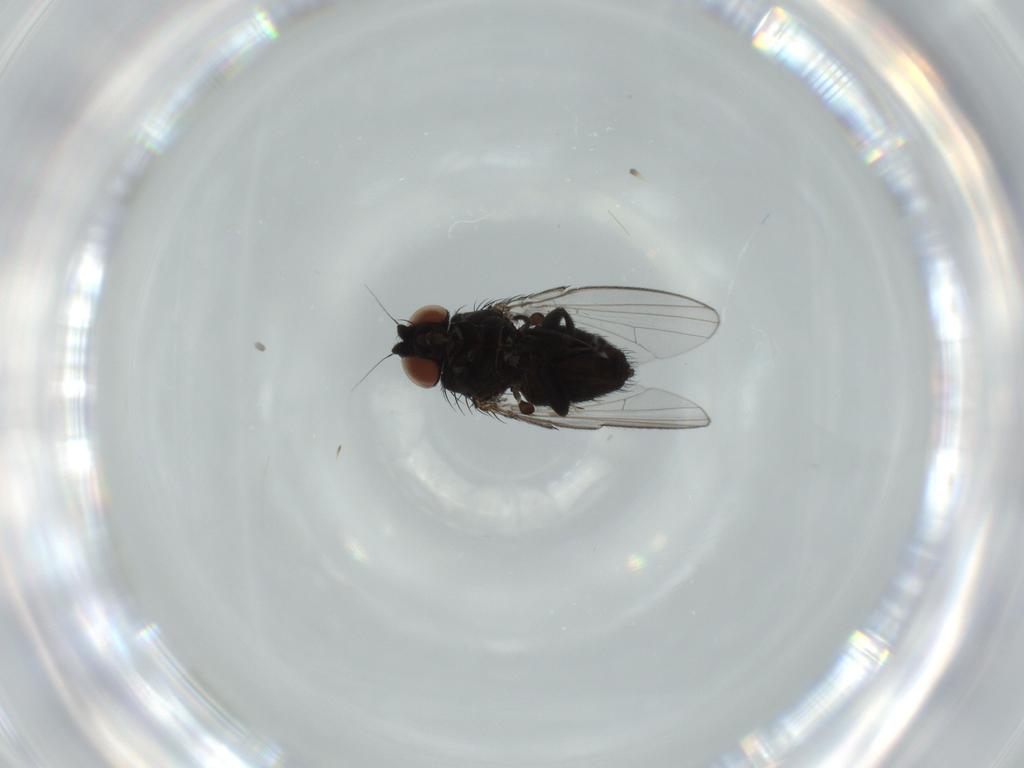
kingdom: Animalia
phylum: Arthropoda
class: Insecta
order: Diptera
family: Milichiidae
